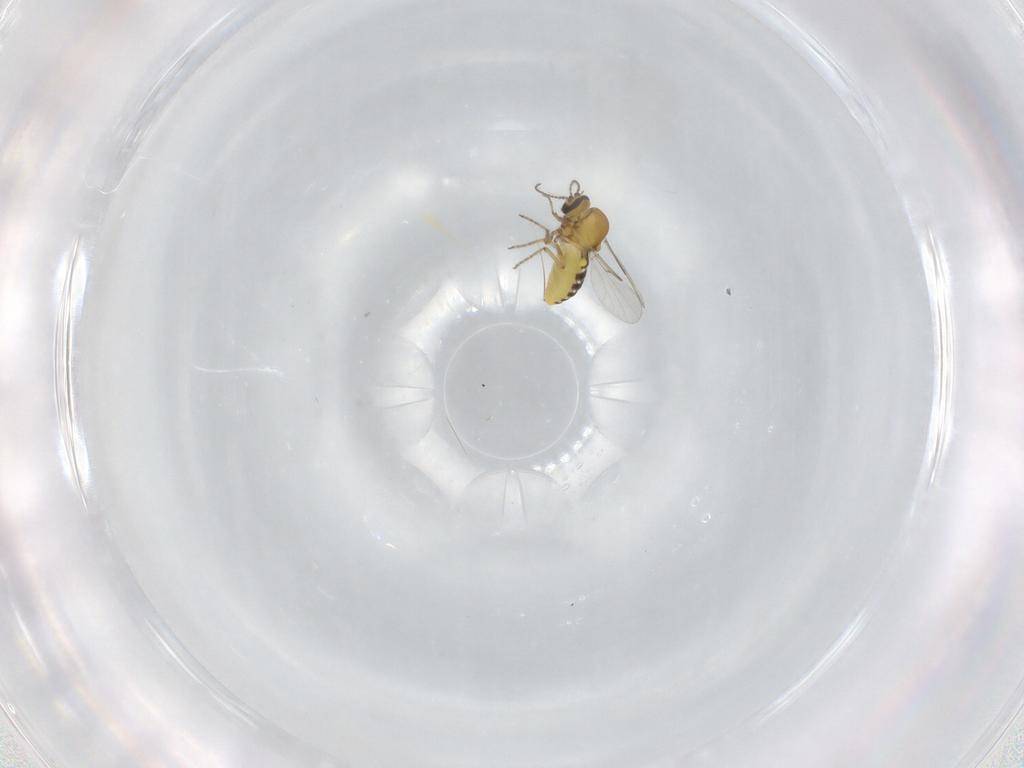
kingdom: Animalia
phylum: Arthropoda
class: Insecta
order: Diptera
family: Ceratopogonidae
